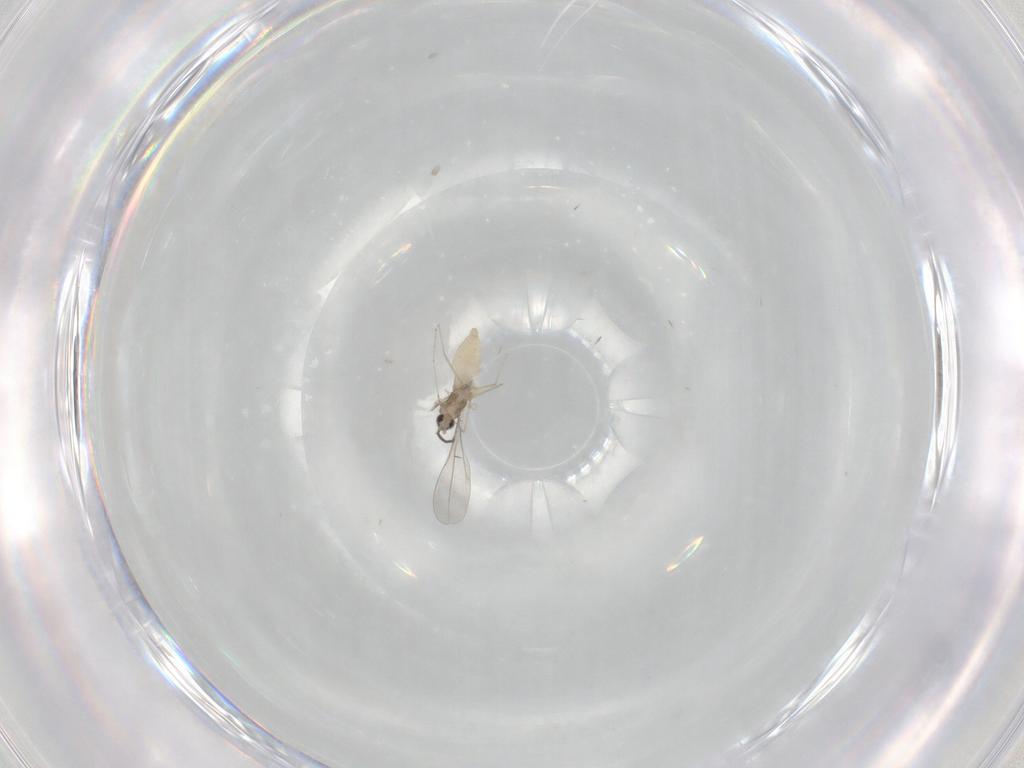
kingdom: Animalia
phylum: Arthropoda
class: Insecta
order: Diptera
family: Cecidomyiidae
